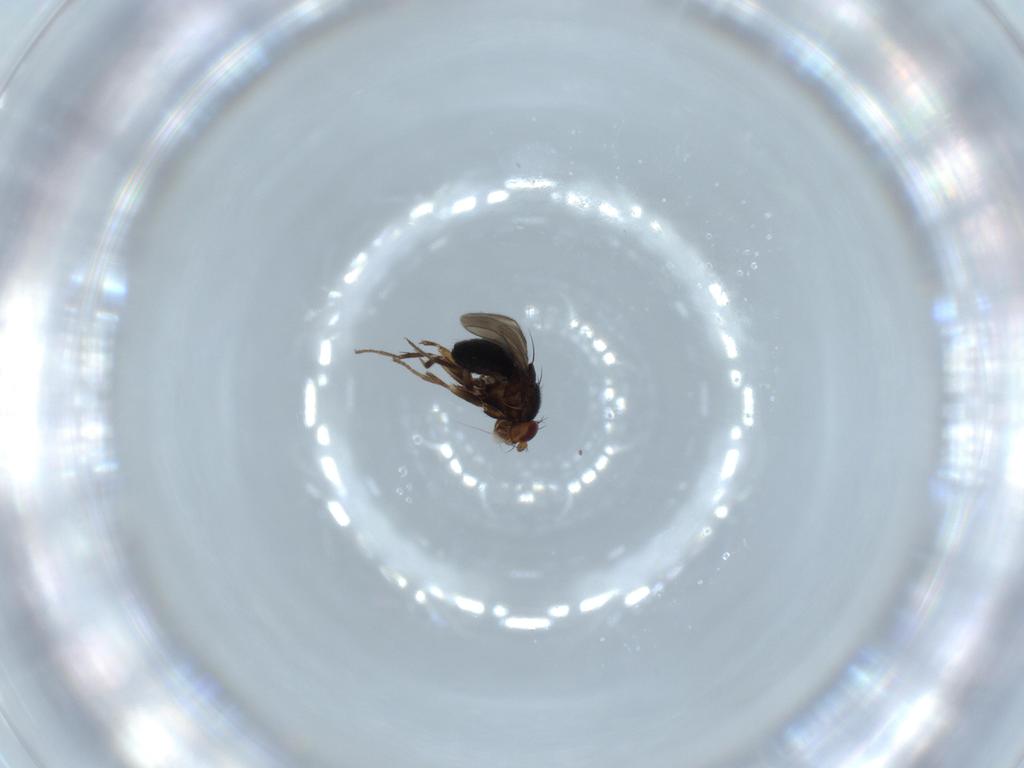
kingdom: Animalia
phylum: Arthropoda
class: Insecta
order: Diptera
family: Sphaeroceridae
